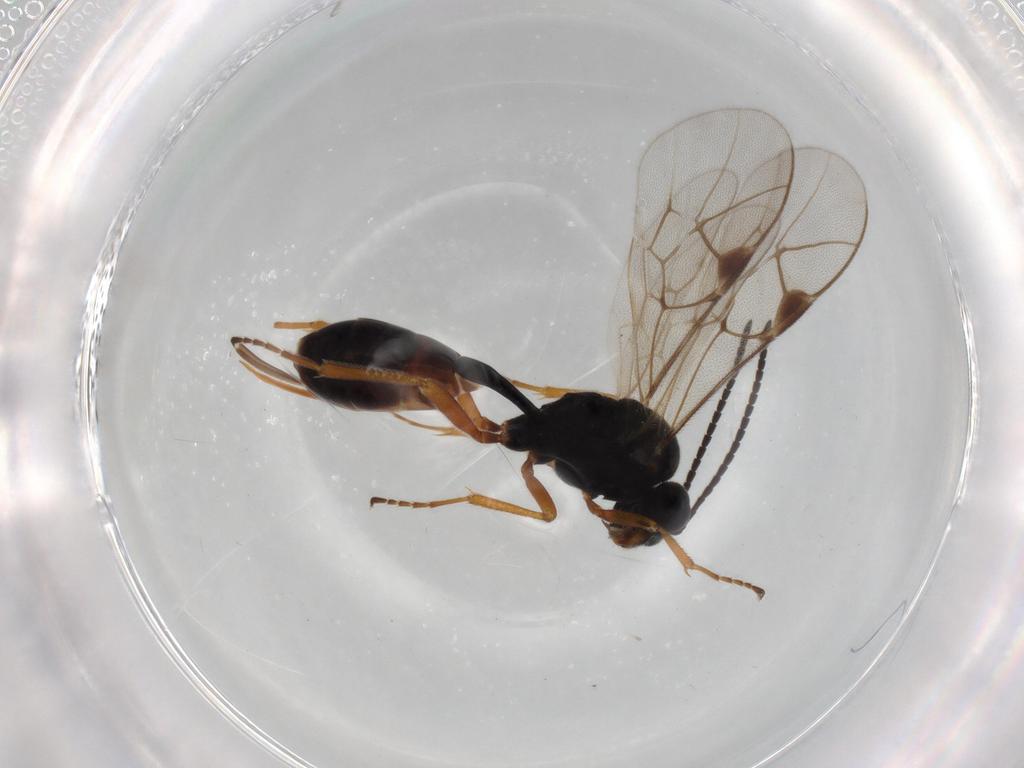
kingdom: Animalia
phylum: Arthropoda
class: Insecta
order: Hymenoptera
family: Ichneumonidae
